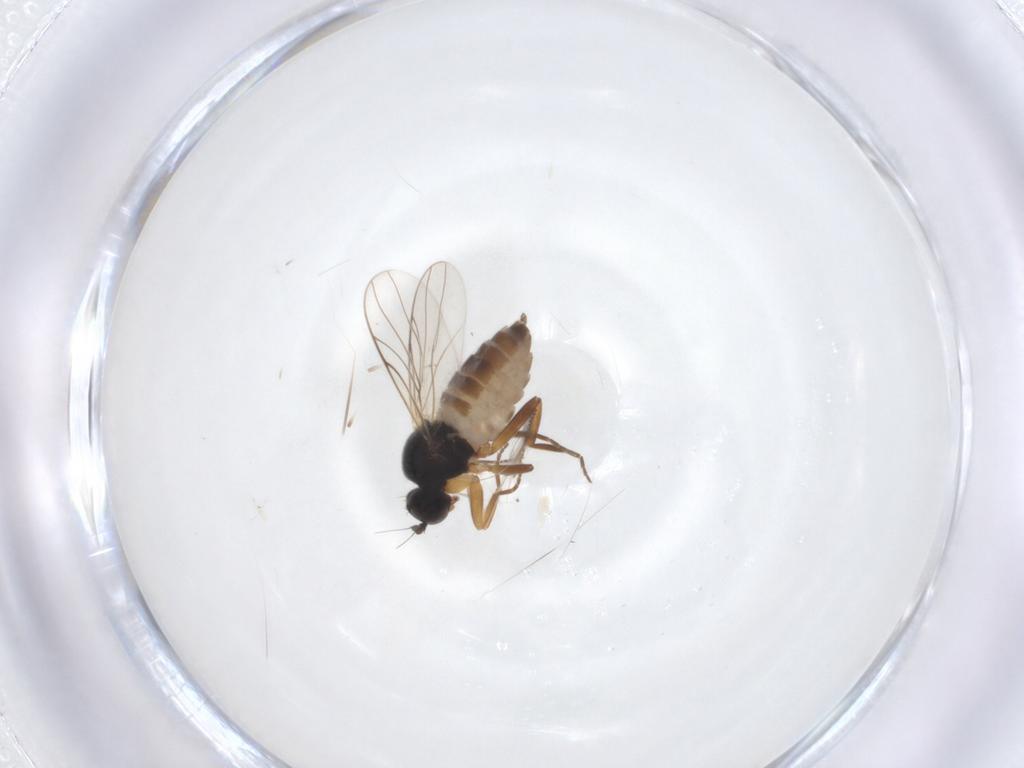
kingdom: Animalia
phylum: Arthropoda
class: Insecta
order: Diptera
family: Hybotidae
